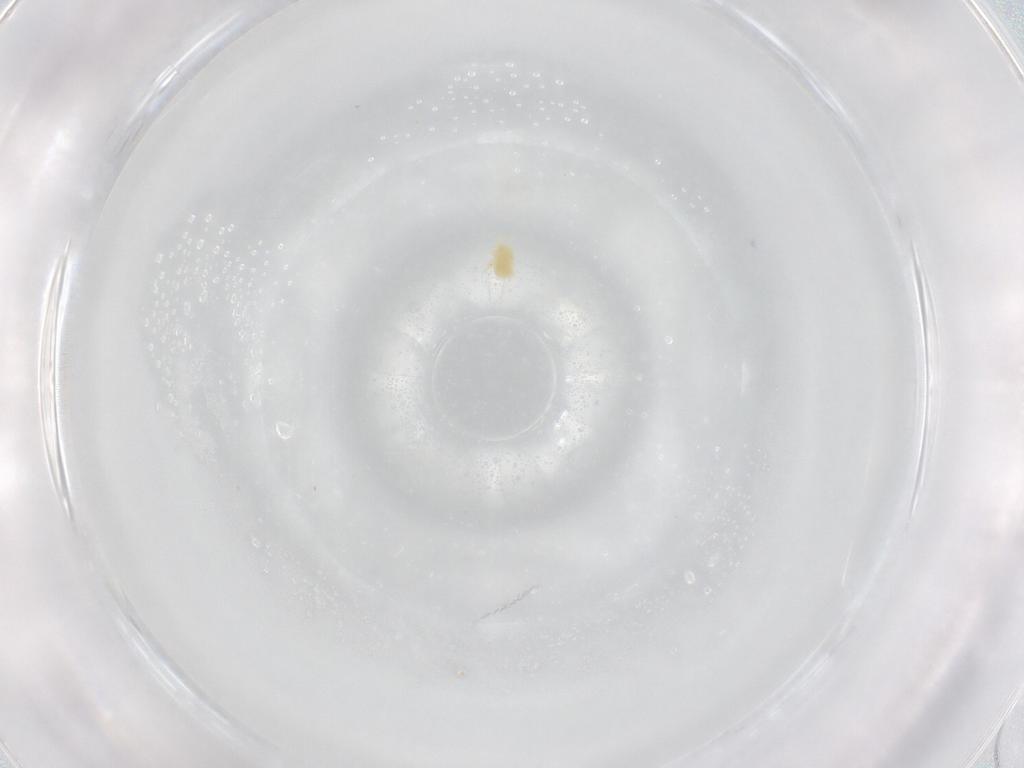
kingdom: Animalia
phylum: Arthropoda
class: Arachnida
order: Trombidiformes
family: Eupodidae
